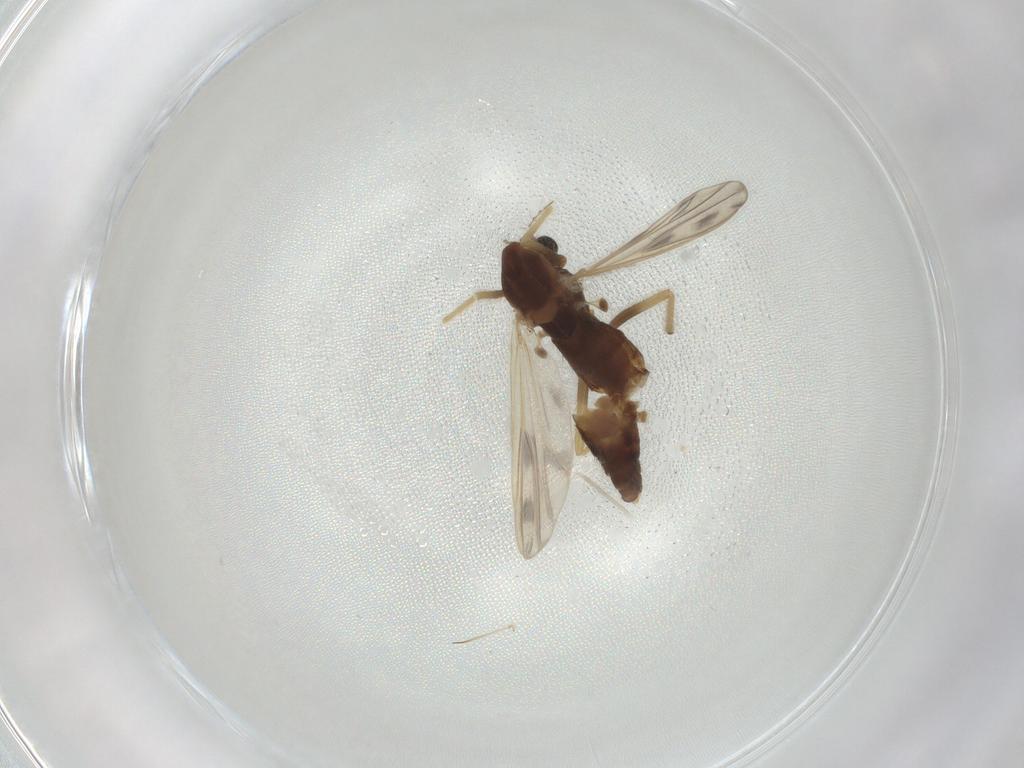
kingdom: Animalia
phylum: Arthropoda
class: Insecta
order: Diptera
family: Chironomidae
